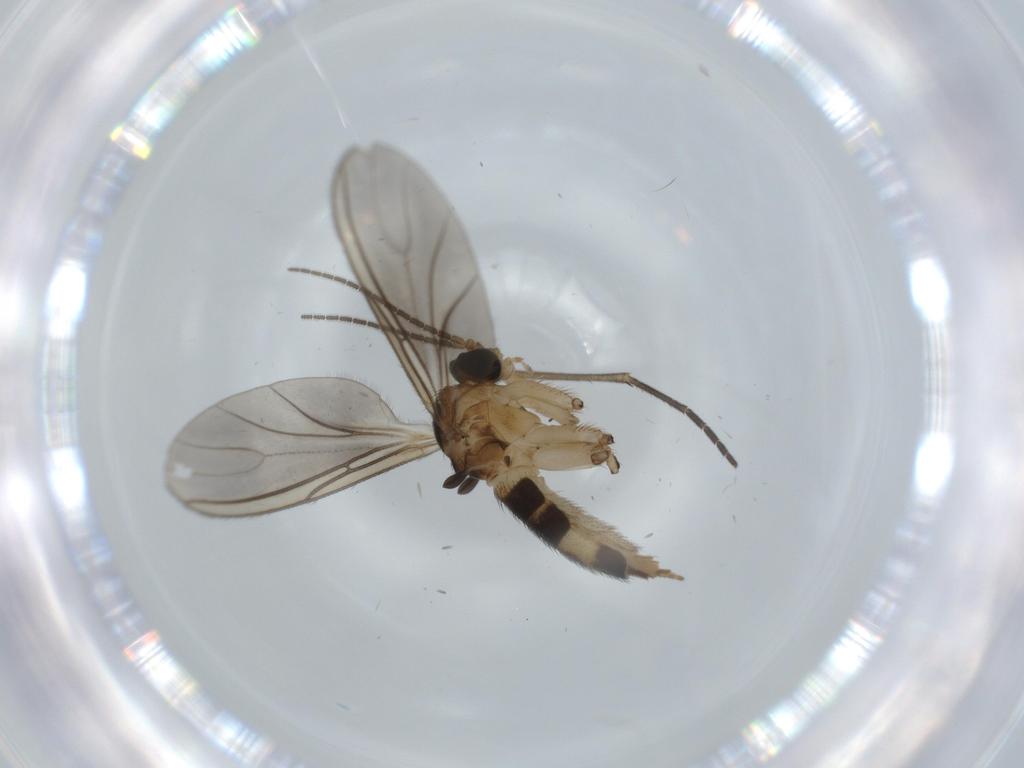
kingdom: Animalia
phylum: Arthropoda
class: Insecta
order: Diptera
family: Sciaridae
